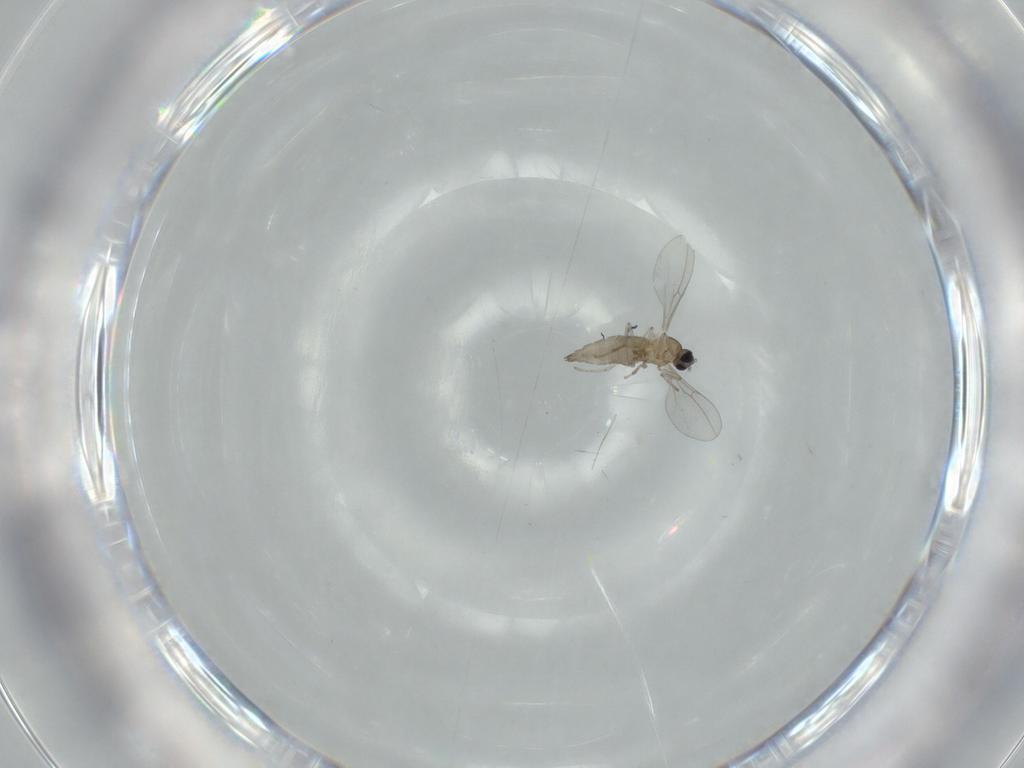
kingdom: Animalia
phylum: Arthropoda
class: Insecta
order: Diptera
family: Cecidomyiidae
